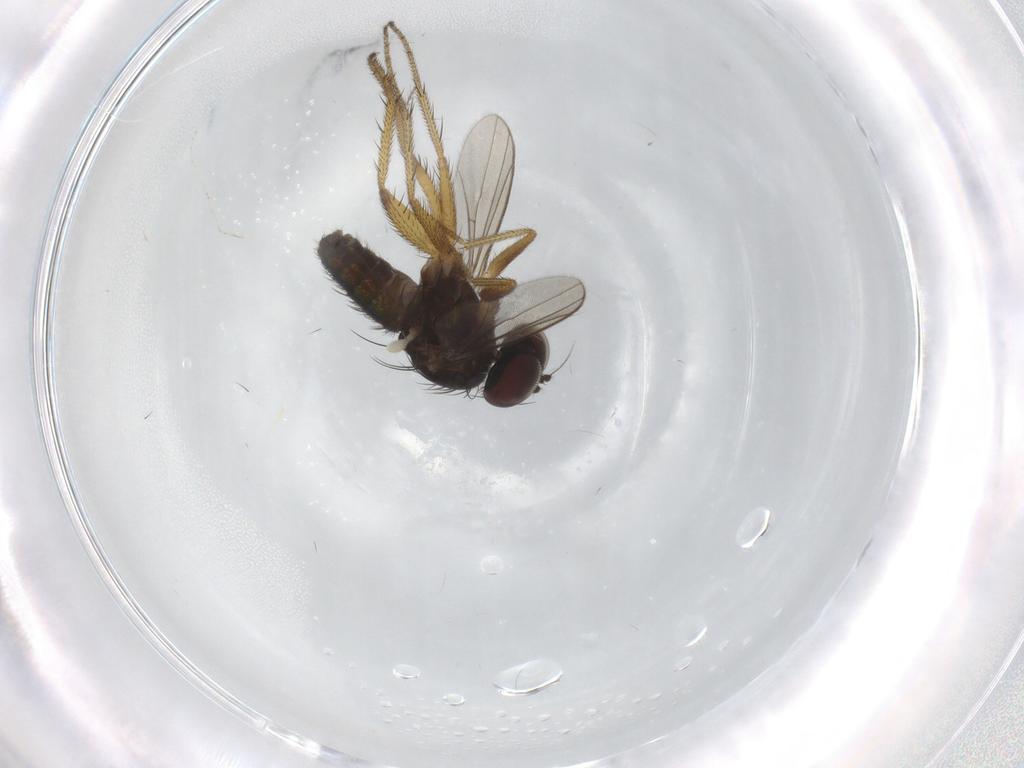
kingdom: Animalia
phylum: Arthropoda
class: Insecta
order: Diptera
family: Dolichopodidae
